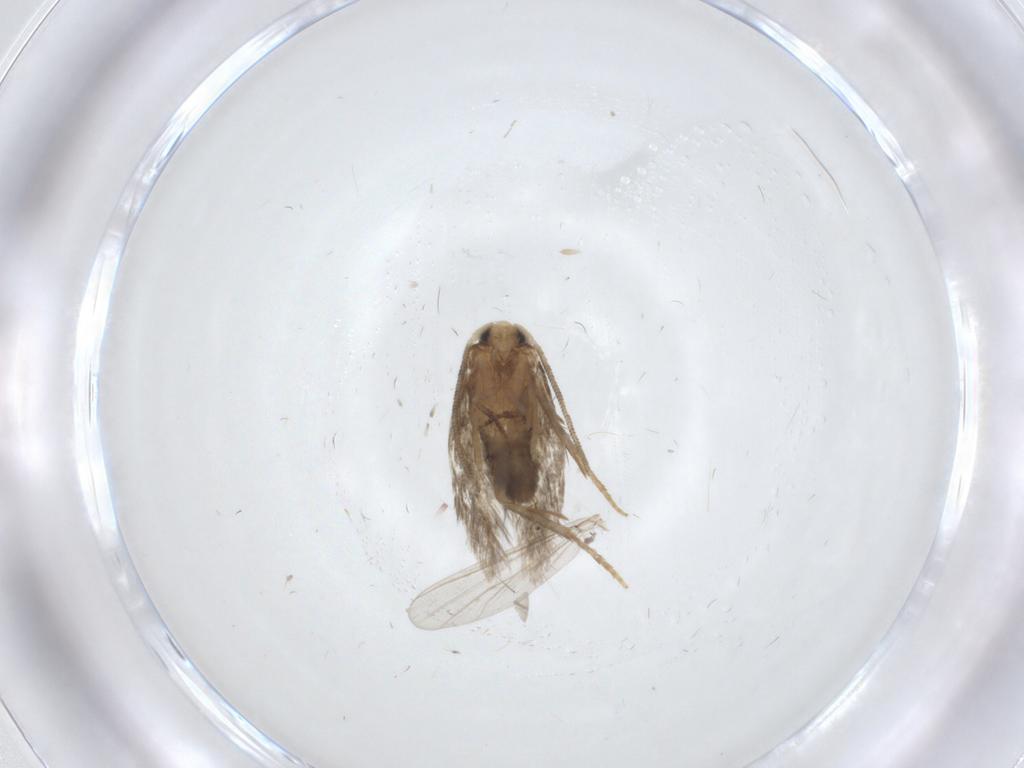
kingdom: Animalia
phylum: Arthropoda
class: Insecta
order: Lepidoptera
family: Nepticulidae
